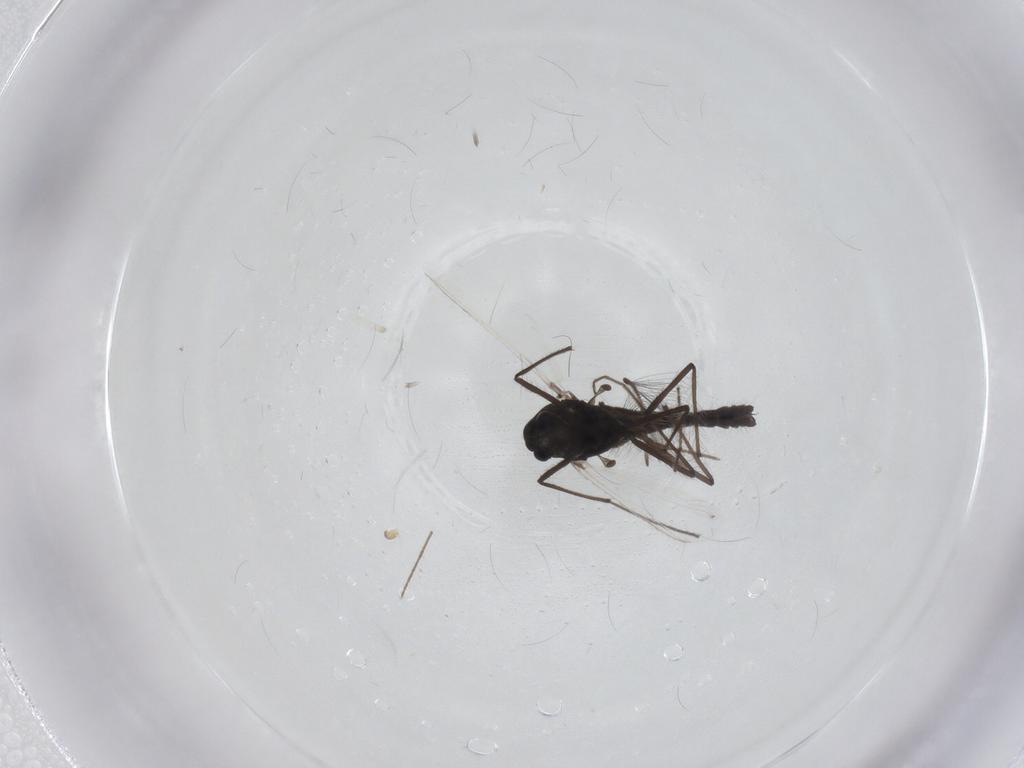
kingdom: Animalia
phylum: Arthropoda
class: Insecta
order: Diptera
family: Chironomidae
